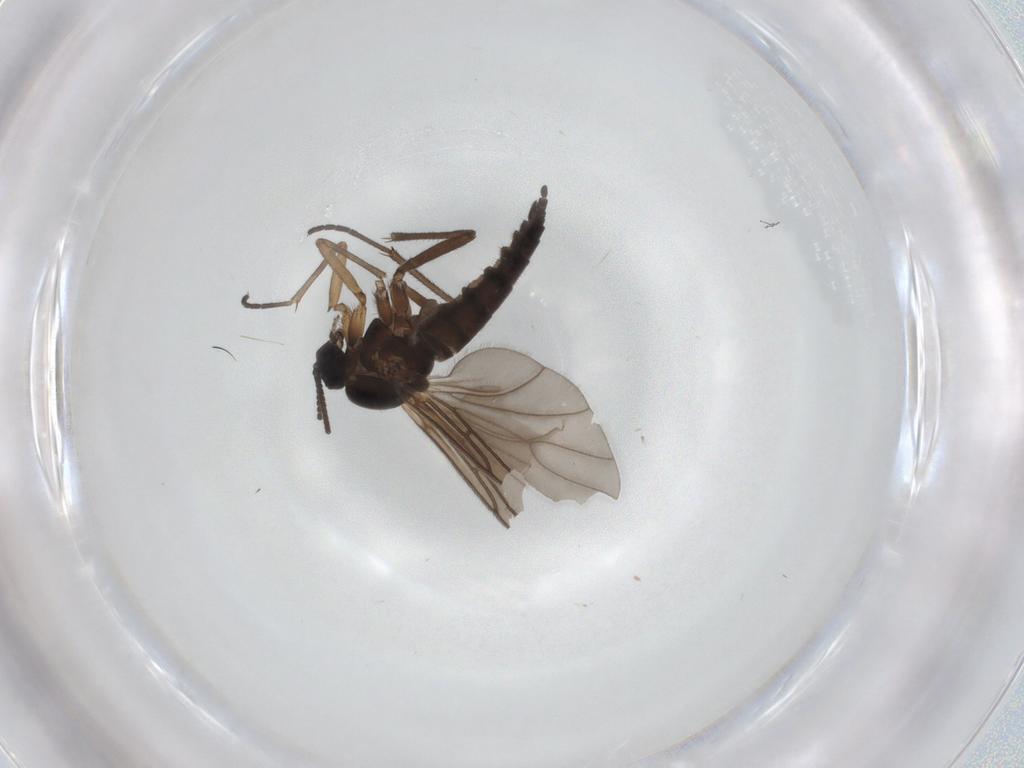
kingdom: Animalia
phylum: Arthropoda
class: Insecta
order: Diptera
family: Sciaridae
